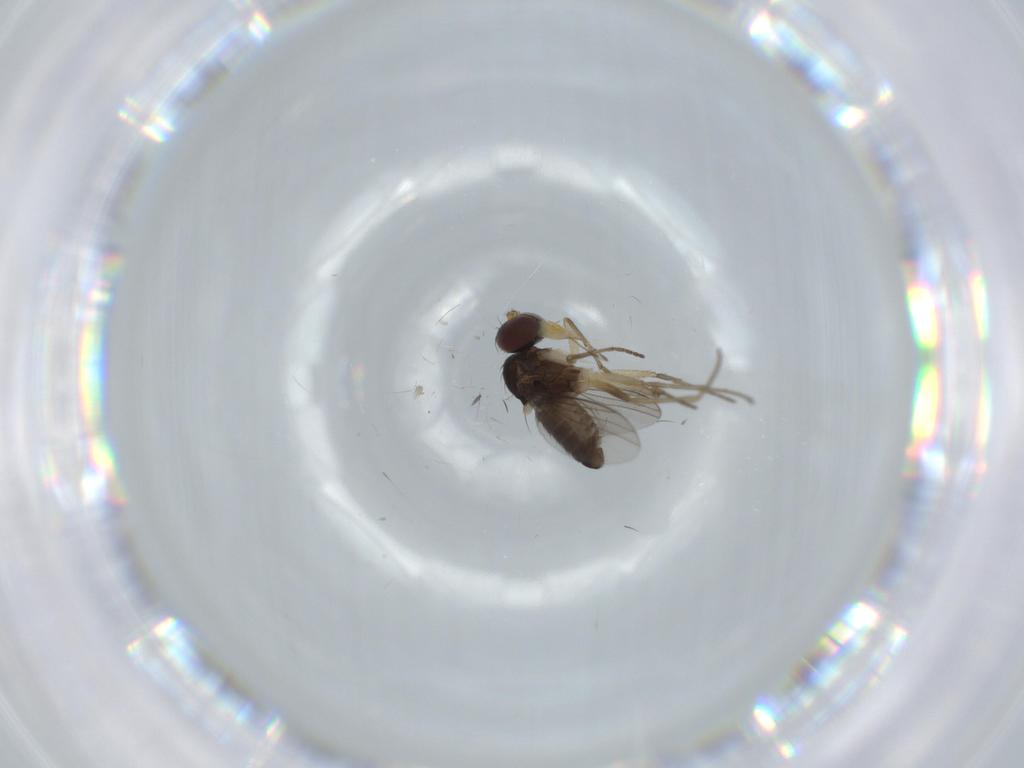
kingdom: Animalia
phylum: Arthropoda
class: Insecta
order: Diptera
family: Dolichopodidae
